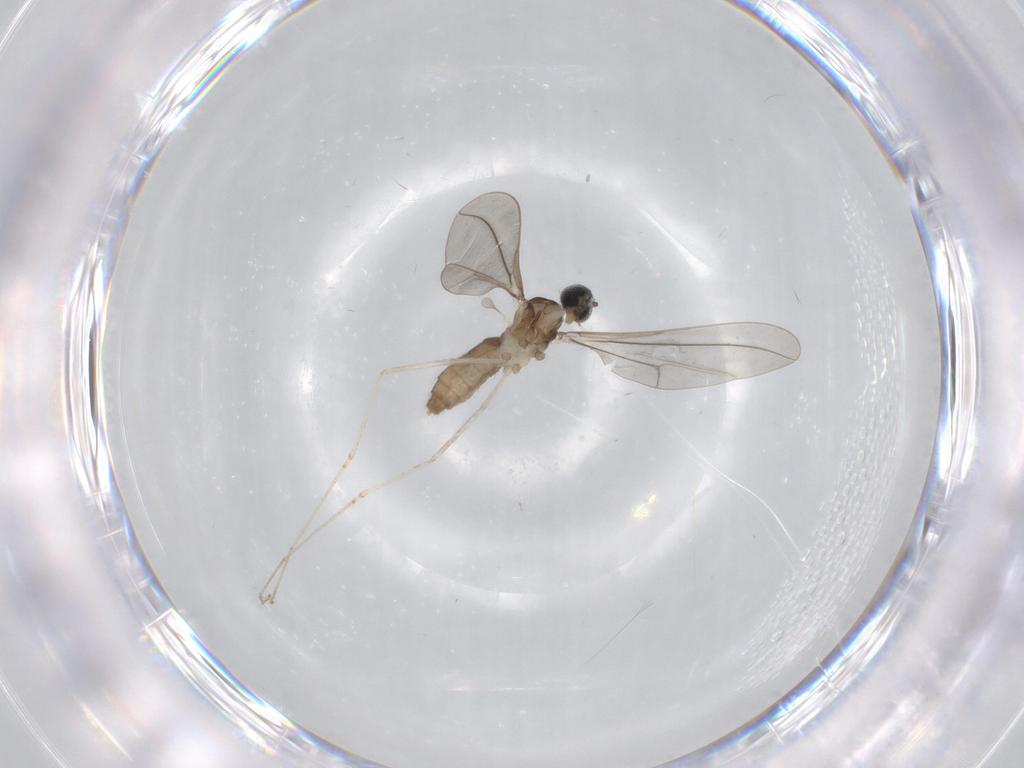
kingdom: Animalia
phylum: Arthropoda
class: Insecta
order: Diptera
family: Cecidomyiidae
